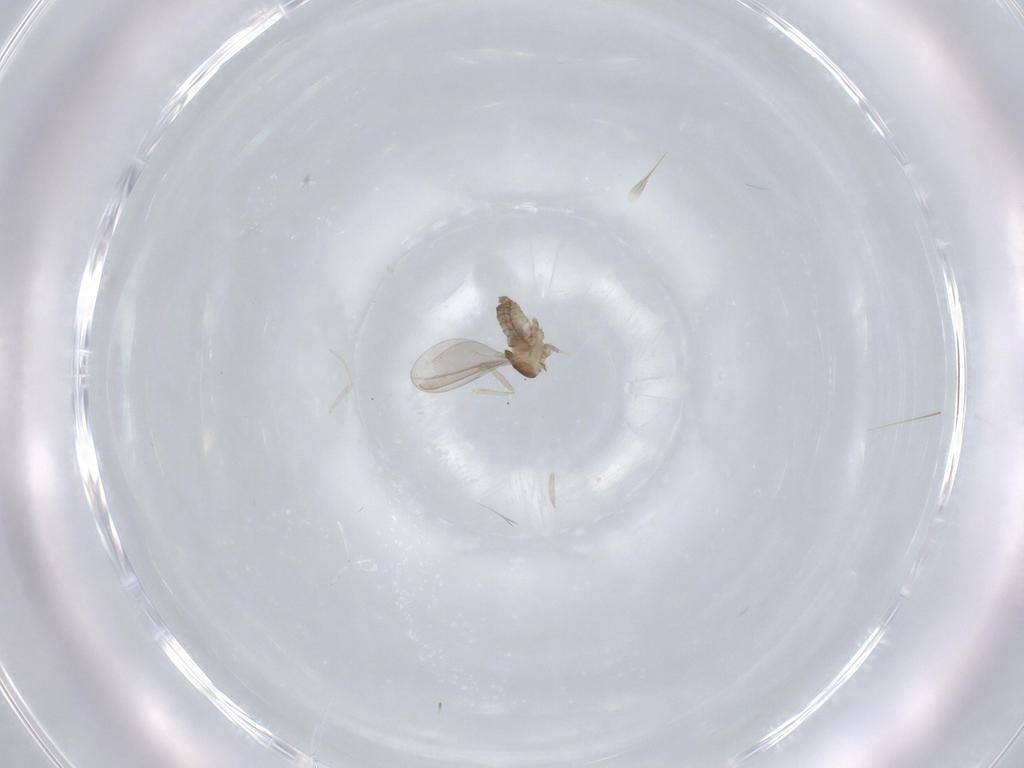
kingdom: Animalia
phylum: Arthropoda
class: Insecta
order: Diptera
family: Cecidomyiidae
